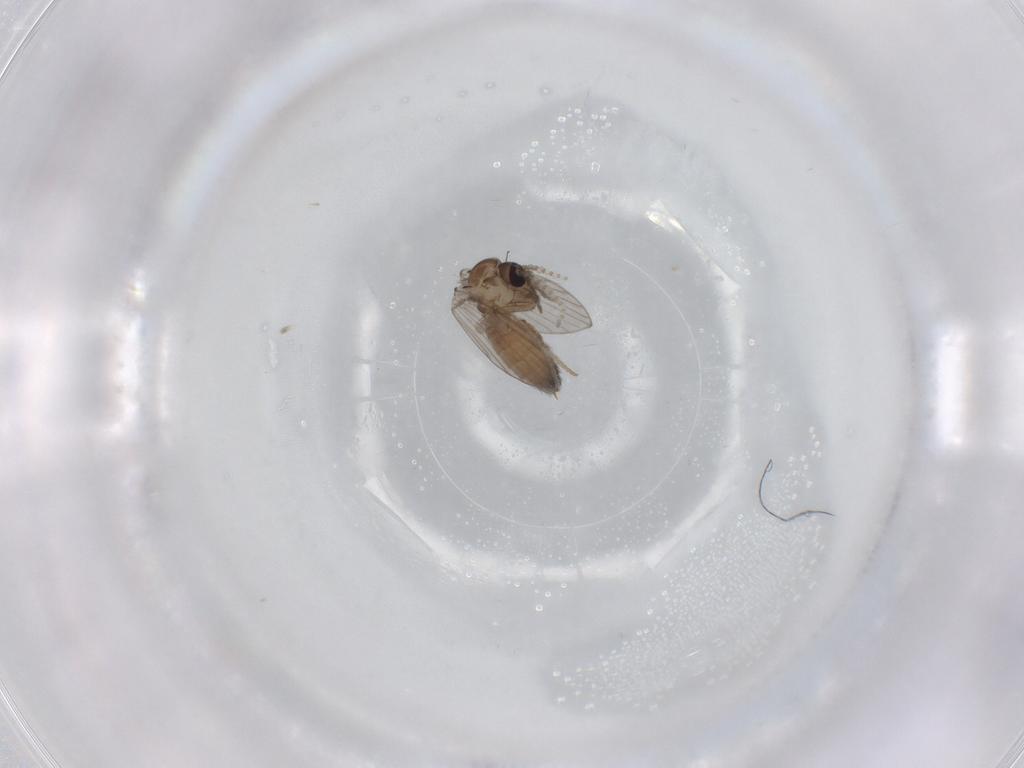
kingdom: Animalia
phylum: Arthropoda
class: Insecta
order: Diptera
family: Psychodidae
